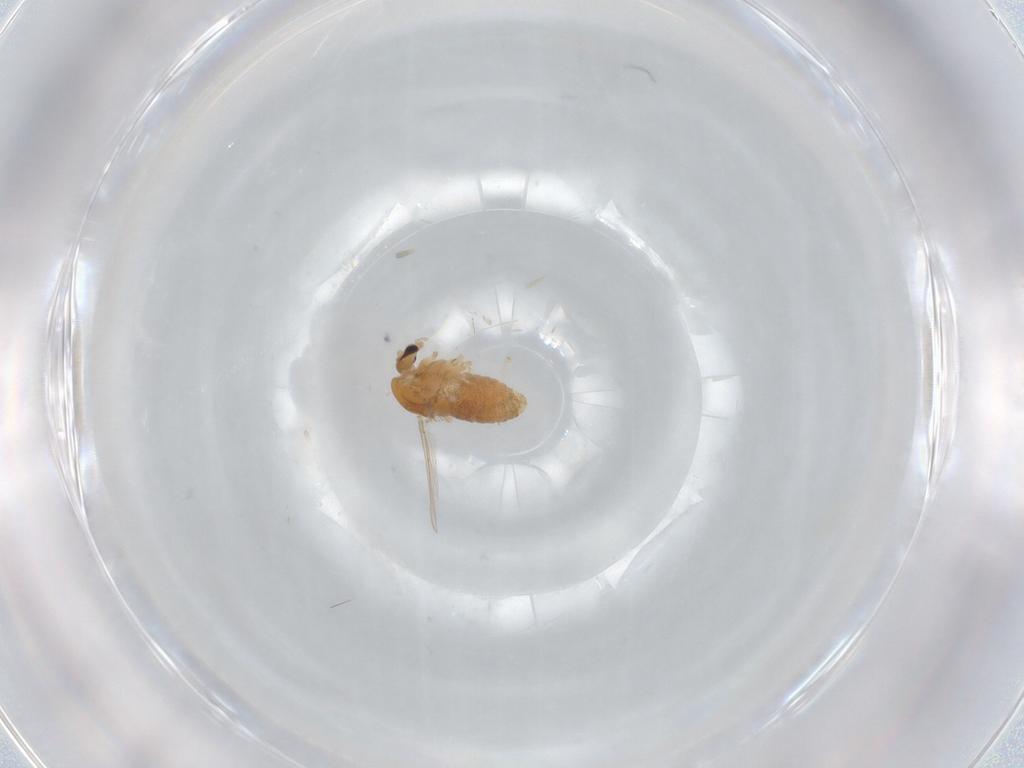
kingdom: Animalia
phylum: Arthropoda
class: Insecta
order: Diptera
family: Chironomidae
